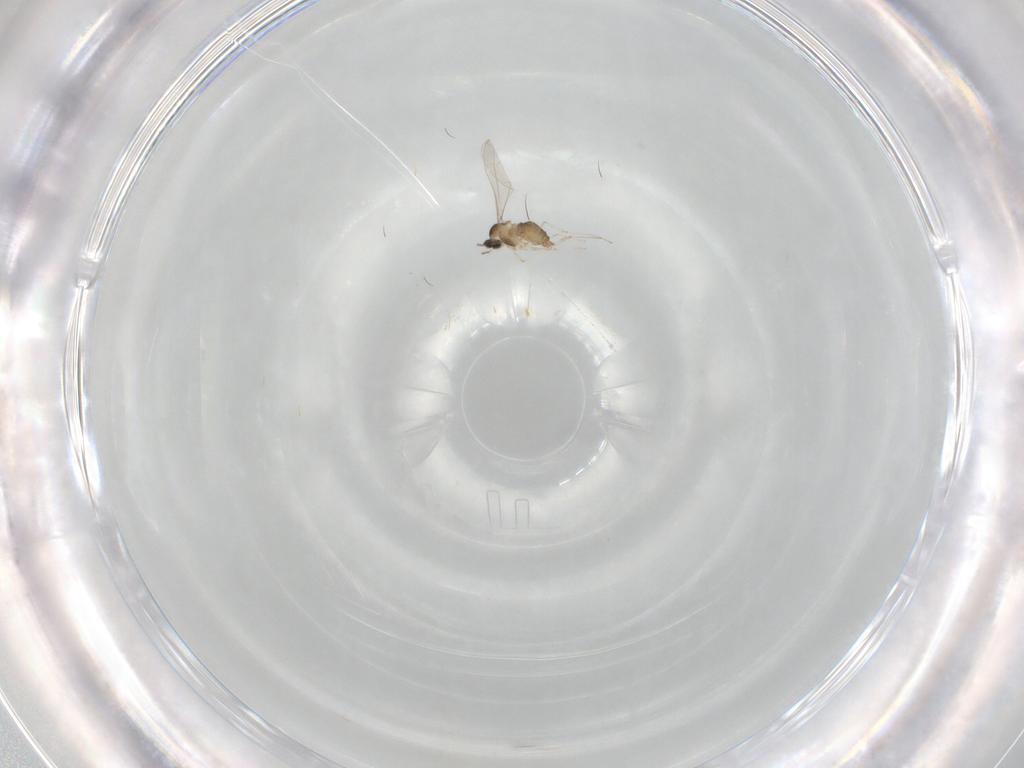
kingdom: Animalia
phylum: Arthropoda
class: Insecta
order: Diptera
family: Cecidomyiidae
